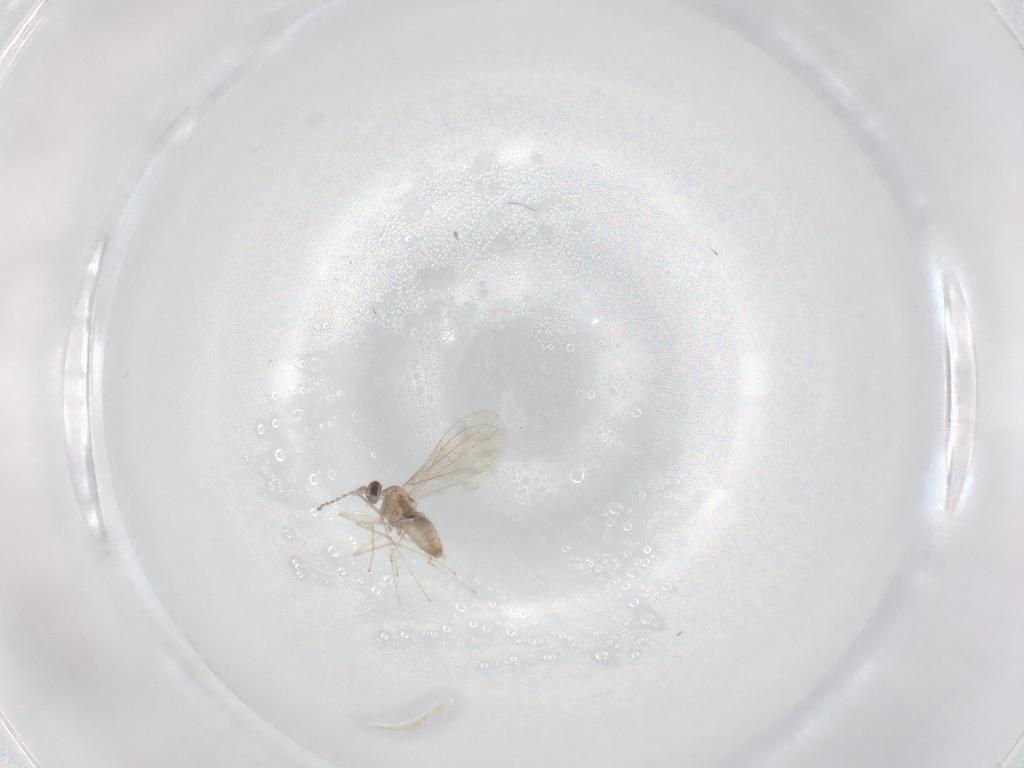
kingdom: Animalia
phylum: Arthropoda
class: Insecta
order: Diptera
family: Cecidomyiidae
